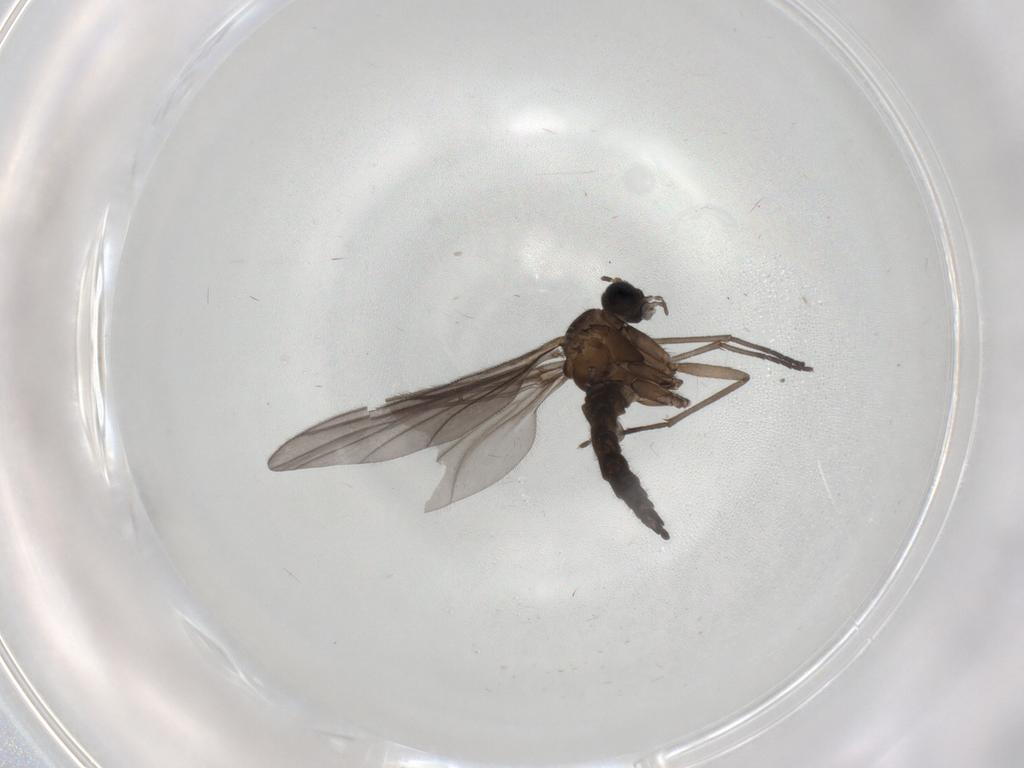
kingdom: Animalia
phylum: Arthropoda
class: Insecta
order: Diptera
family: Sciaridae
